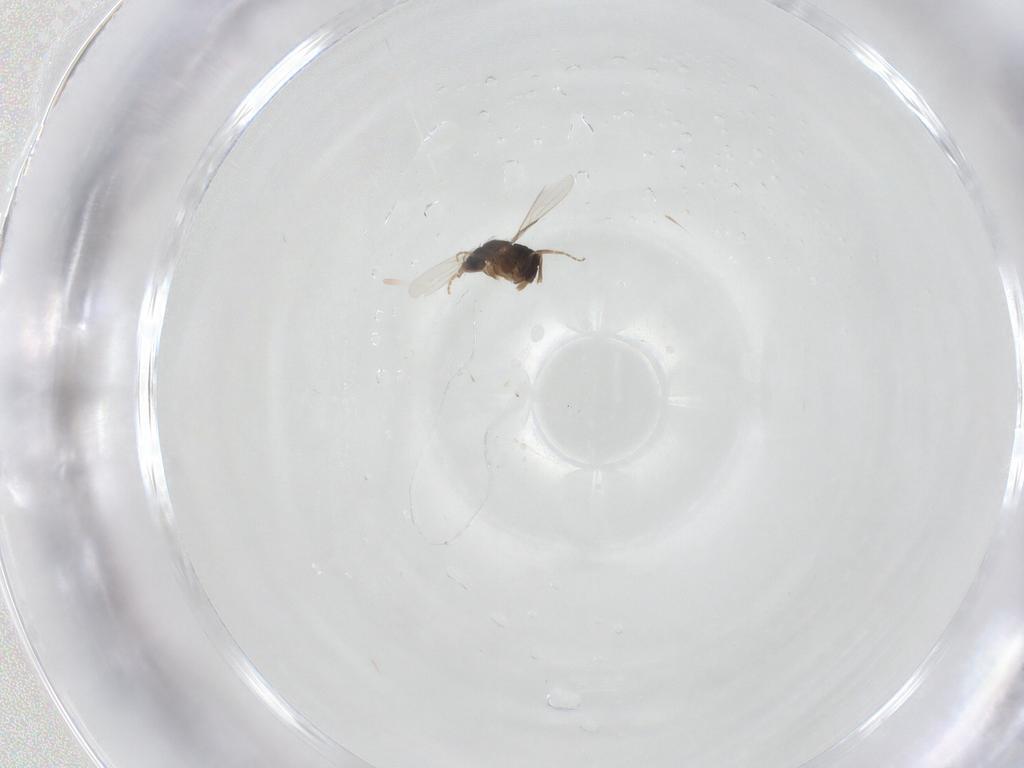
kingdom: Animalia
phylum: Arthropoda
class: Insecta
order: Diptera
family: Phoridae
